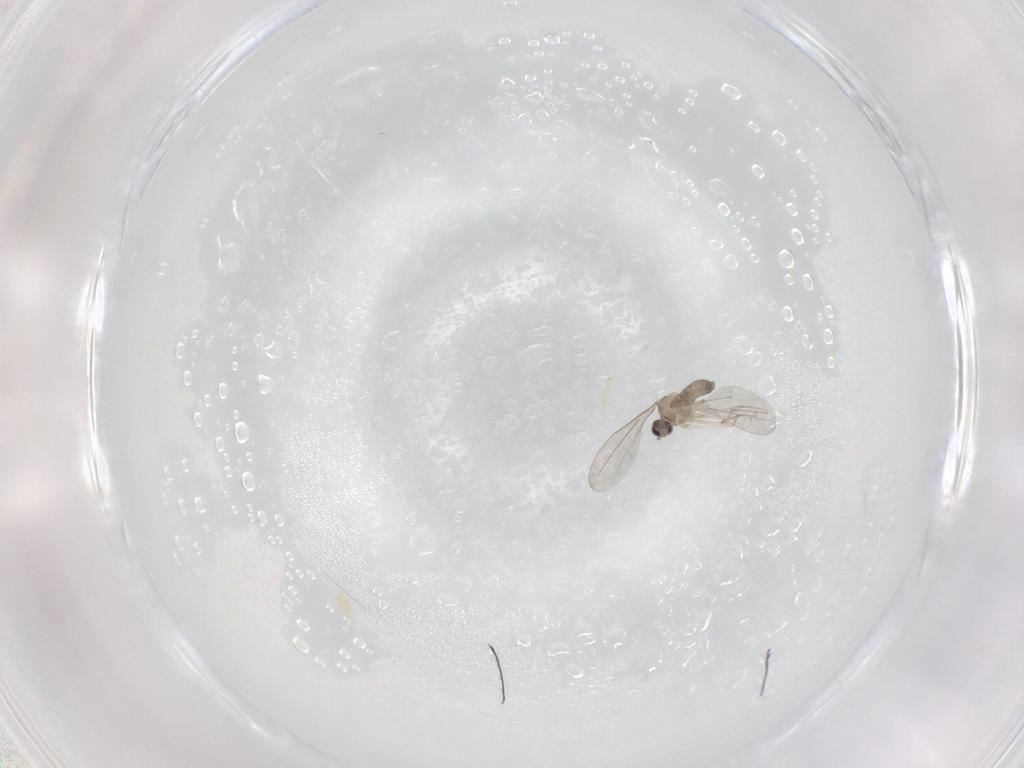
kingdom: Animalia
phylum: Arthropoda
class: Insecta
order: Diptera
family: Cecidomyiidae
